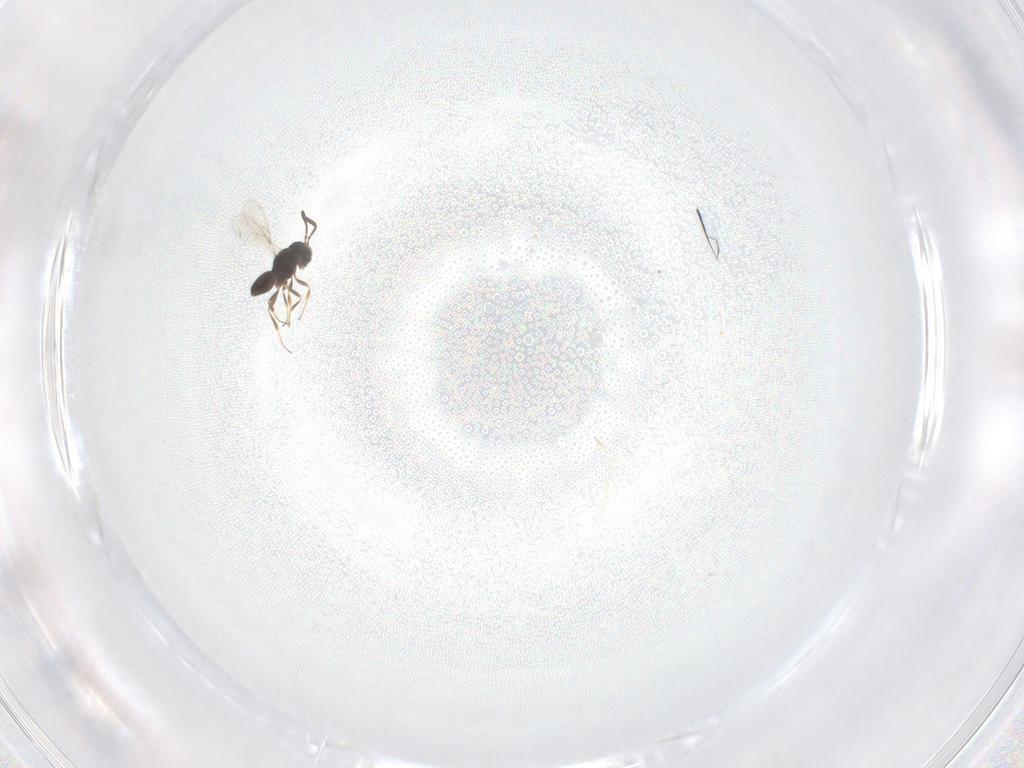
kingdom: Animalia
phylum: Arthropoda
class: Insecta
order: Hymenoptera
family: Scelionidae
